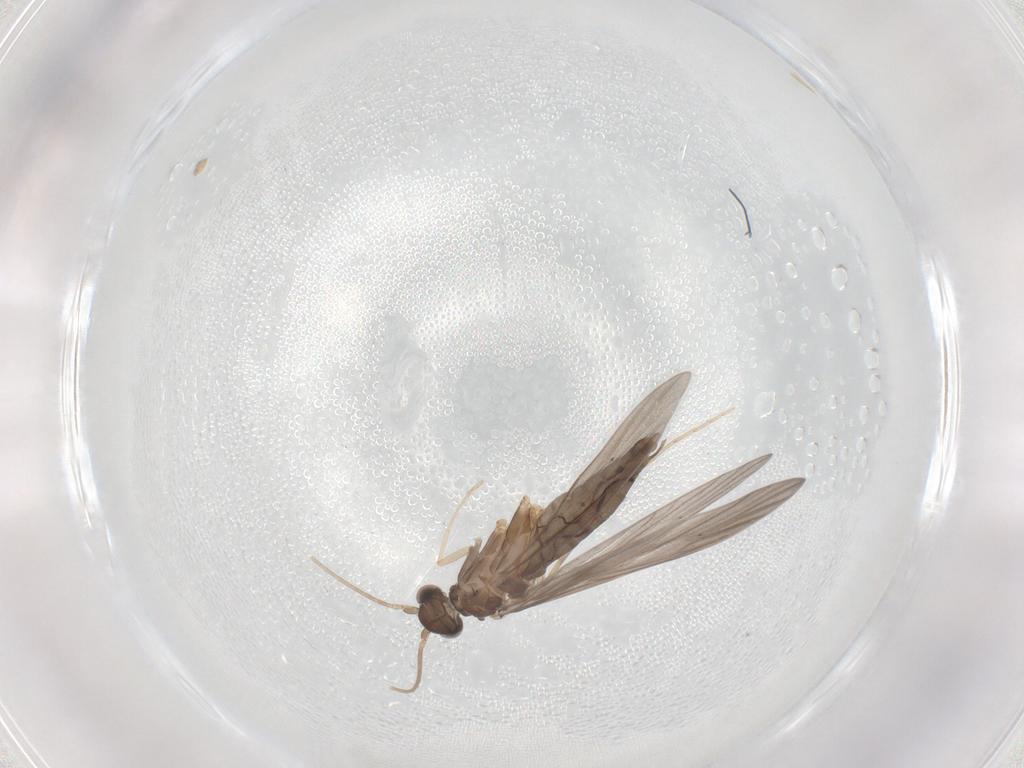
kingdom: Animalia
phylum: Arthropoda
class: Insecta
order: Trichoptera
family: Xiphocentronidae
